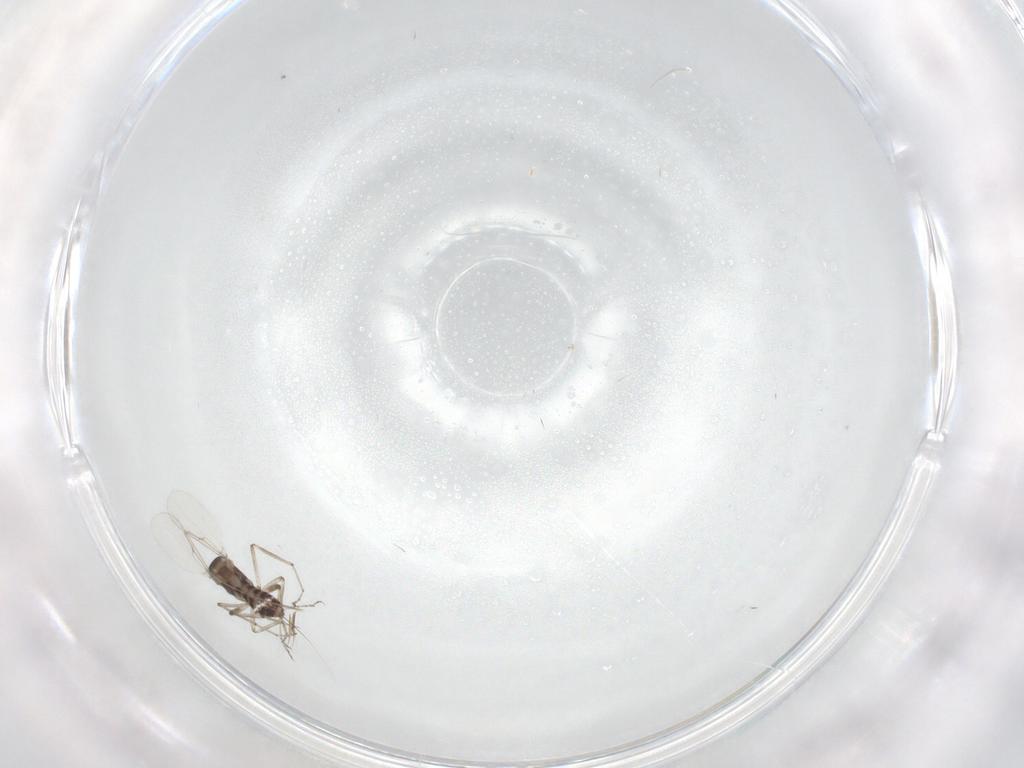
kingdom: Animalia
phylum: Arthropoda
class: Insecta
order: Diptera
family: Ceratopogonidae
